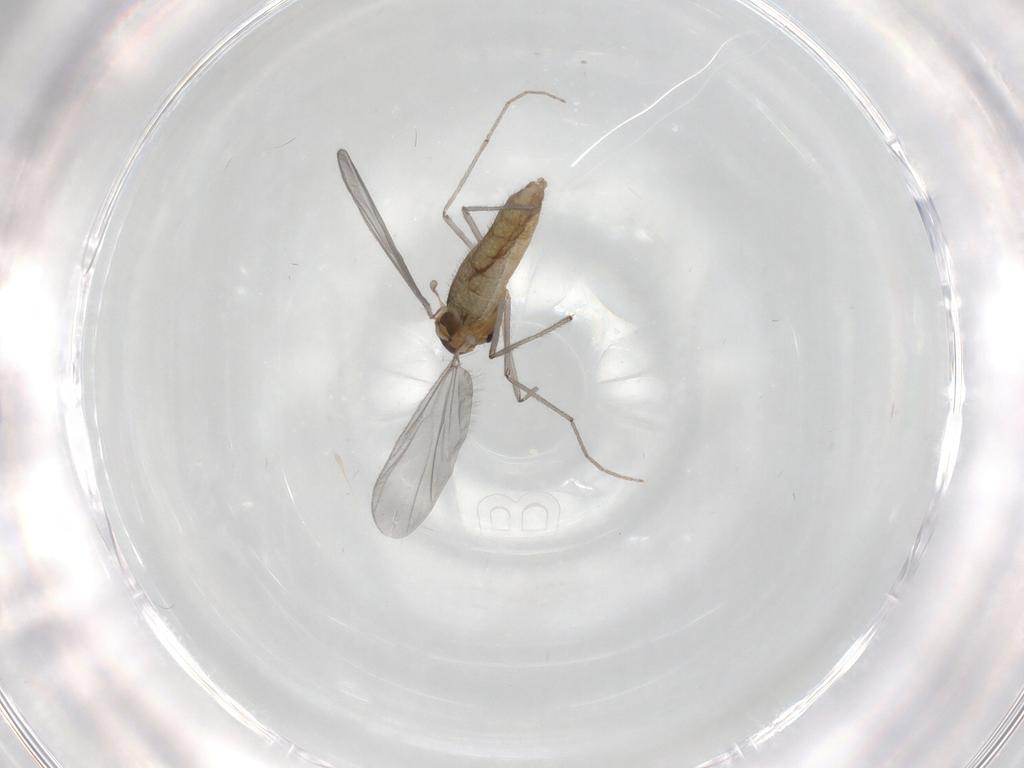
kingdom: Animalia
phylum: Arthropoda
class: Insecta
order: Diptera
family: Chironomidae
